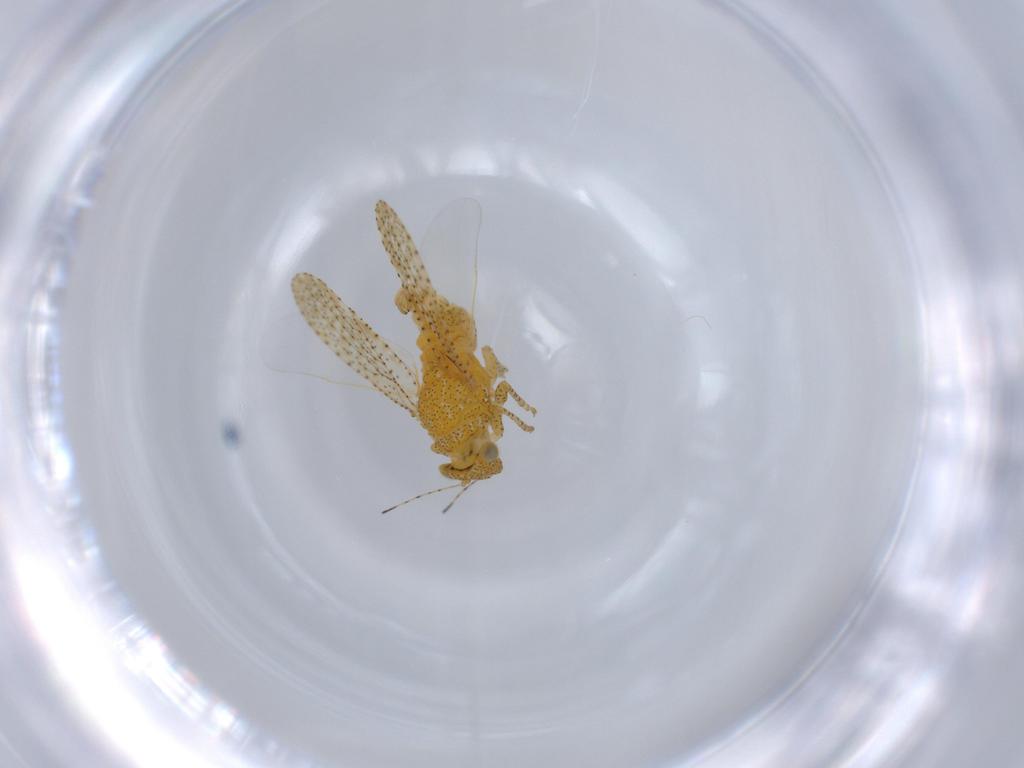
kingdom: Animalia
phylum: Arthropoda
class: Insecta
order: Hemiptera
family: Psyllidae
